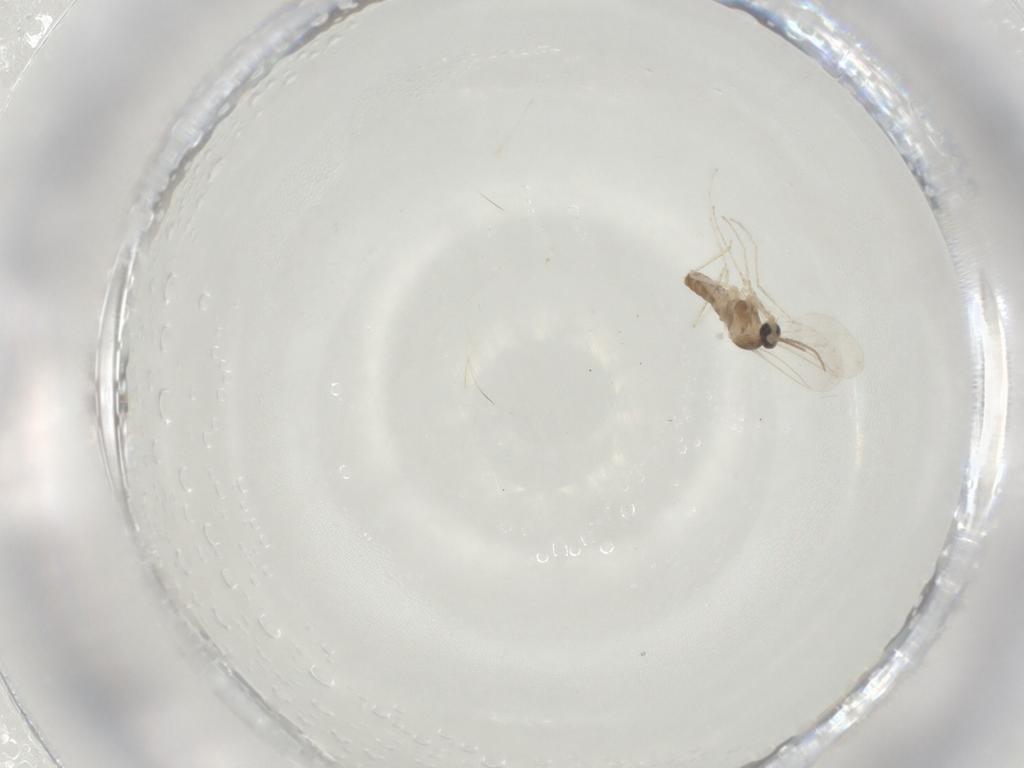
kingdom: Animalia
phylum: Arthropoda
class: Insecta
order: Diptera
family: Cecidomyiidae
